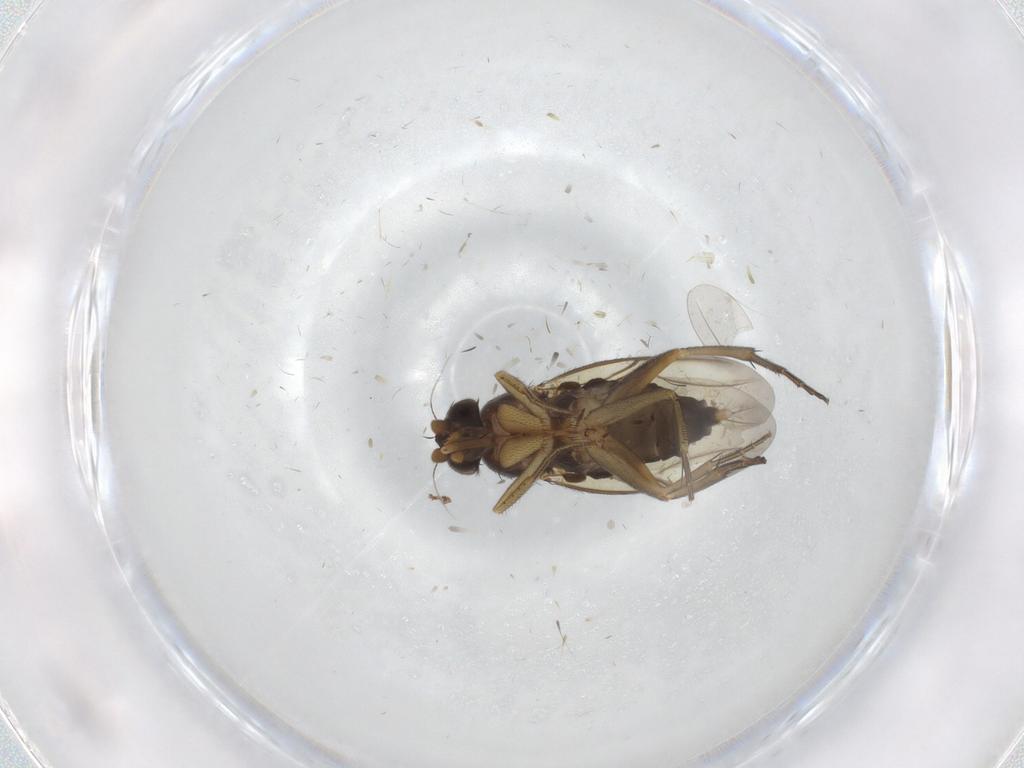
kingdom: Animalia
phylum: Arthropoda
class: Insecta
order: Diptera
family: Phoridae
